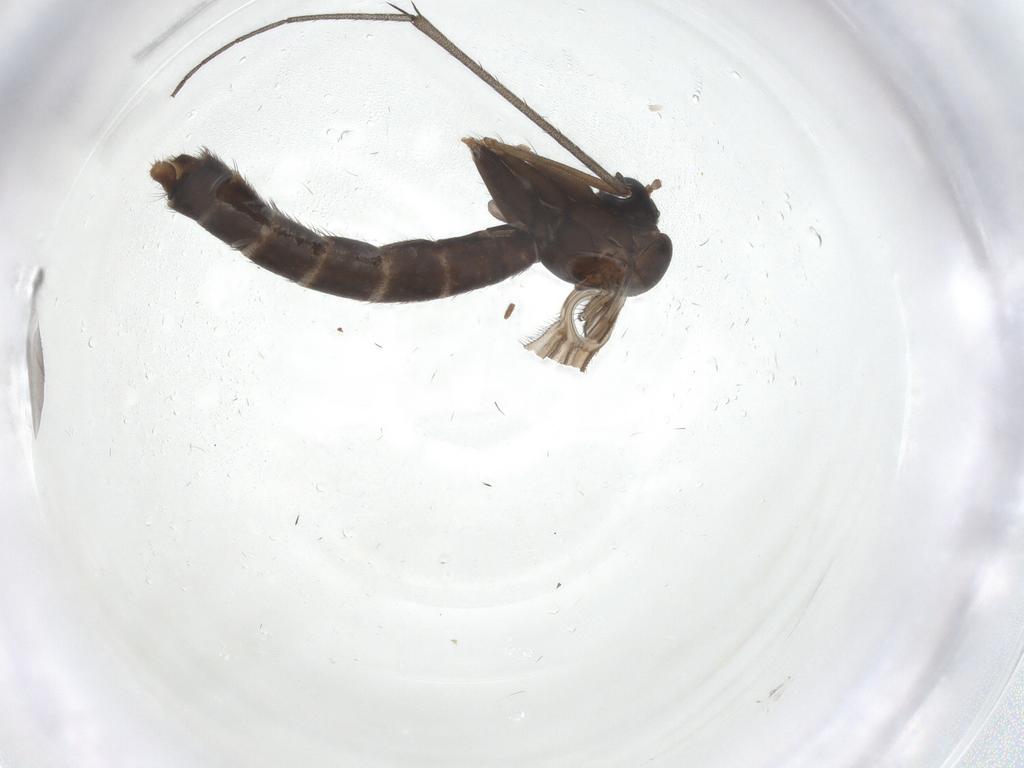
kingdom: Animalia
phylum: Arthropoda
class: Insecta
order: Diptera
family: Ditomyiidae
